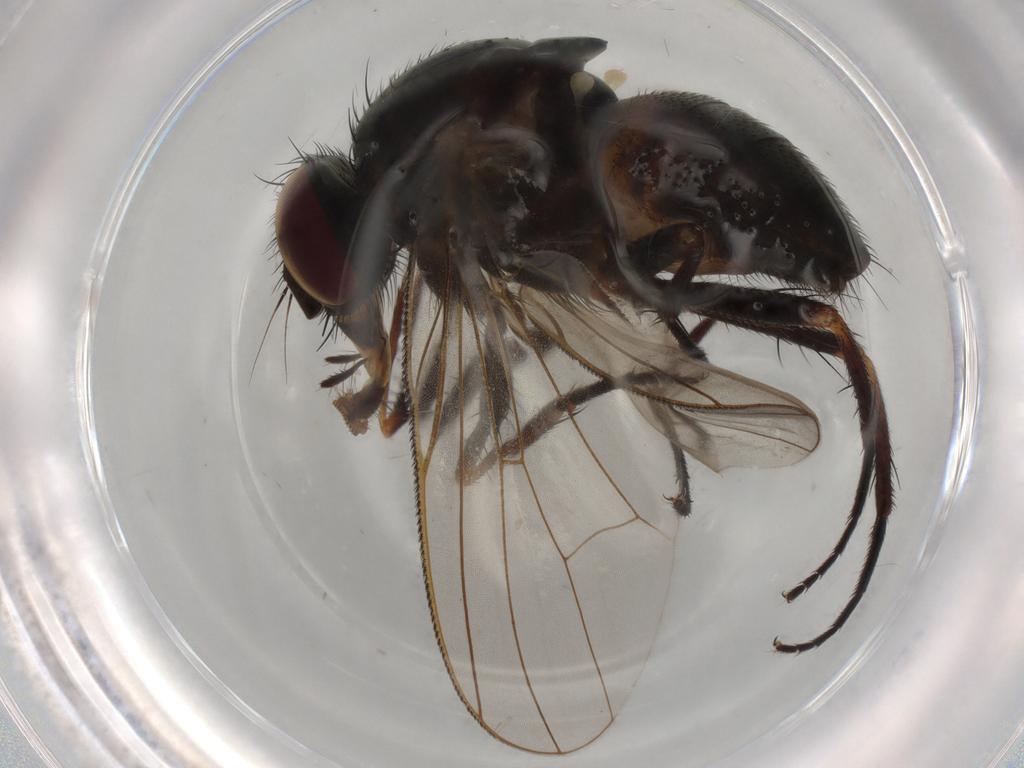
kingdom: Animalia
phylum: Arthropoda
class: Insecta
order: Diptera
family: Fannia
